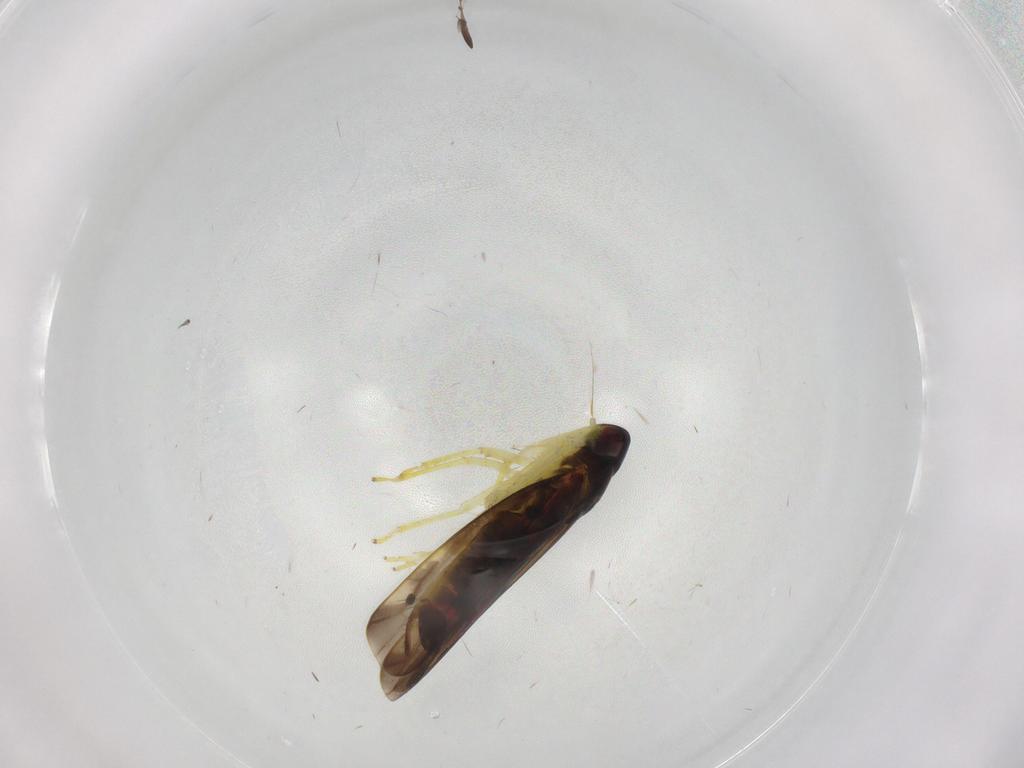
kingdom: Animalia
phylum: Arthropoda
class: Insecta
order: Hemiptera
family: Cicadellidae
